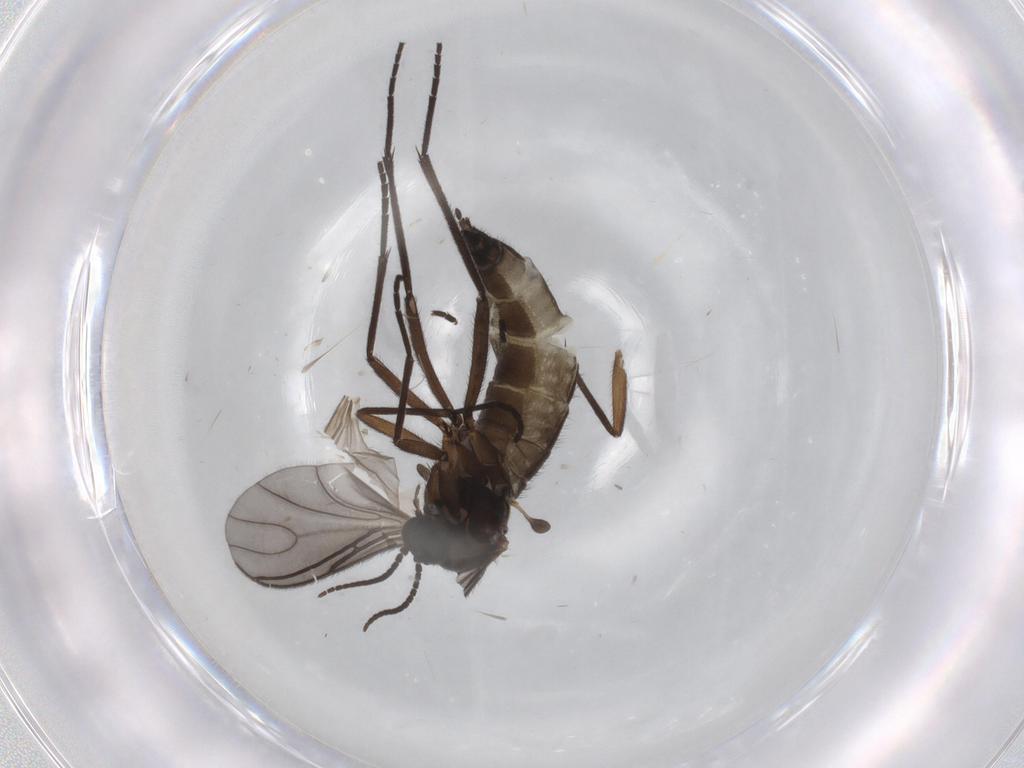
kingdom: Animalia
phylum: Arthropoda
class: Insecta
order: Diptera
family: Sciaridae
